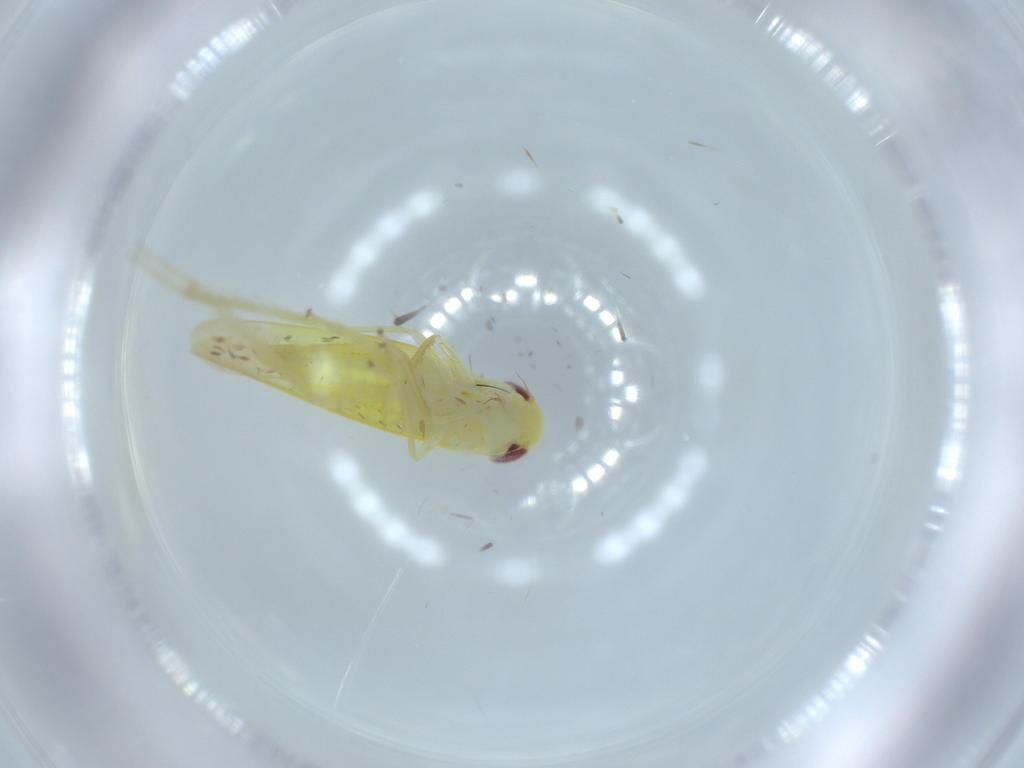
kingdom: Animalia
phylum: Arthropoda
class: Insecta
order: Hemiptera
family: Cicadellidae
